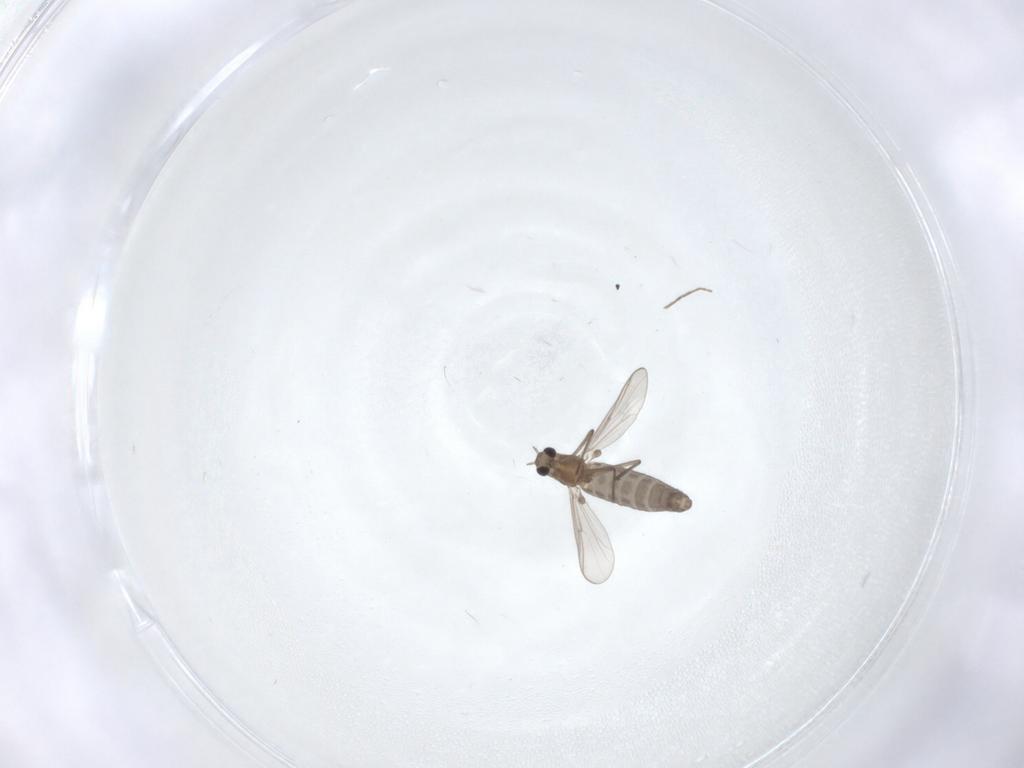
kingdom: Animalia
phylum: Arthropoda
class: Insecta
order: Diptera
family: Chironomidae
